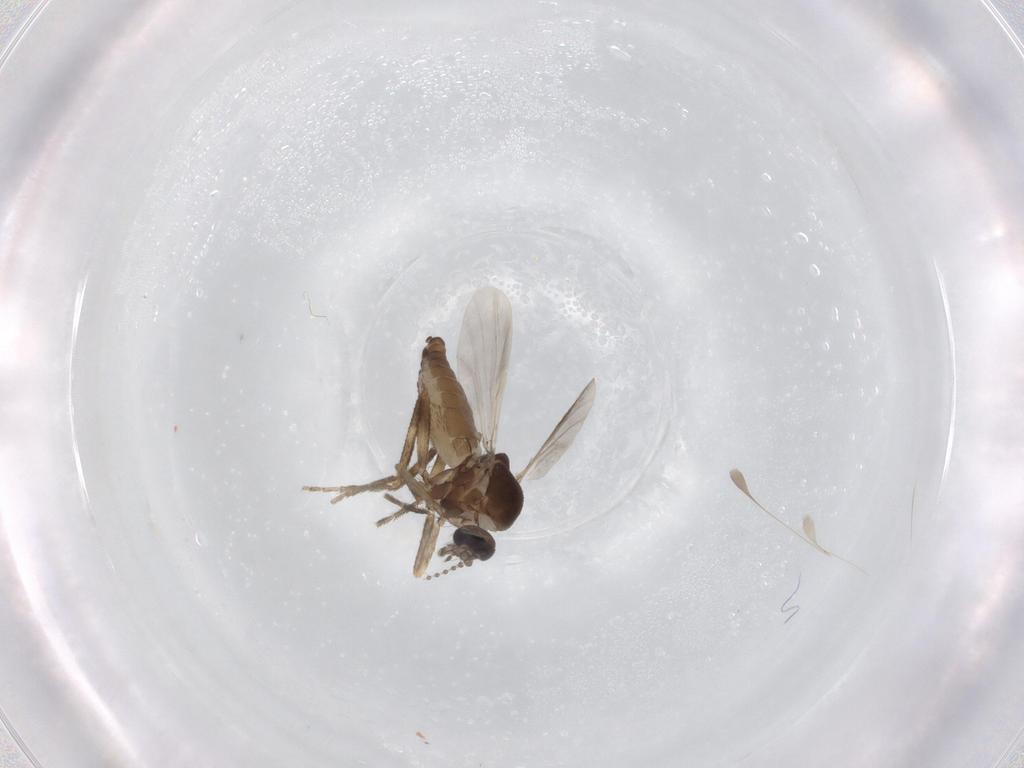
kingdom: Animalia
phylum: Arthropoda
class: Insecta
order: Diptera
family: Ceratopogonidae
